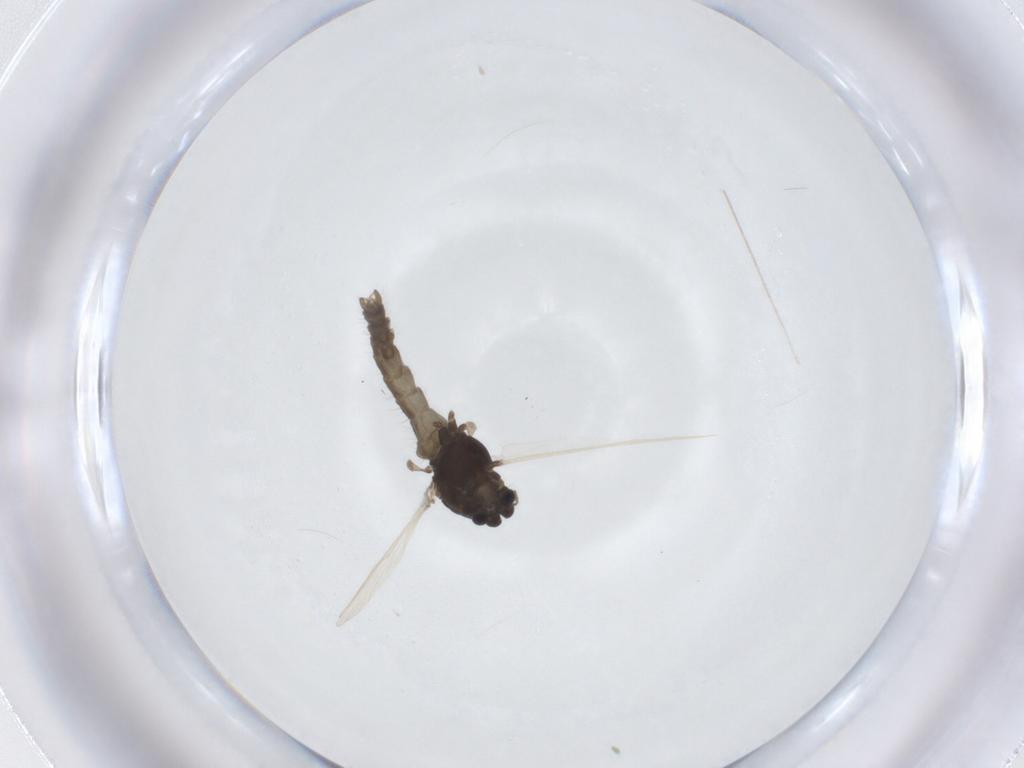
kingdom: Animalia
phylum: Arthropoda
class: Insecta
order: Diptera
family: Chironomidae
